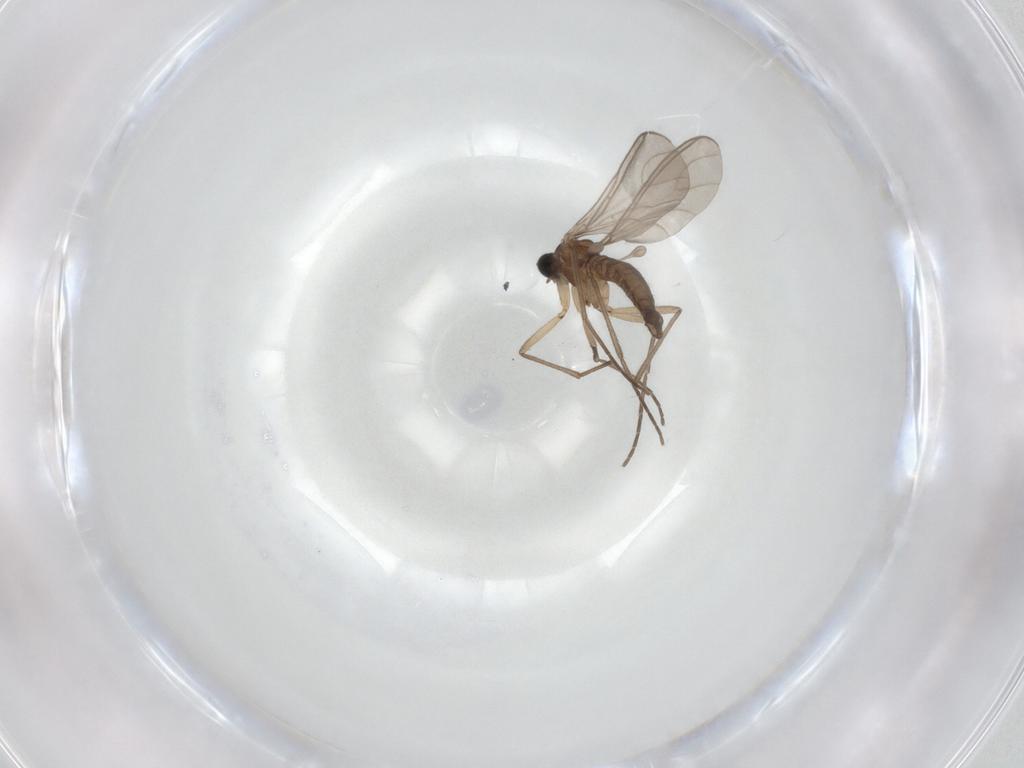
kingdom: Animalia
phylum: Arthropoda
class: Insecta
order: Diptera
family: Sciaridae
